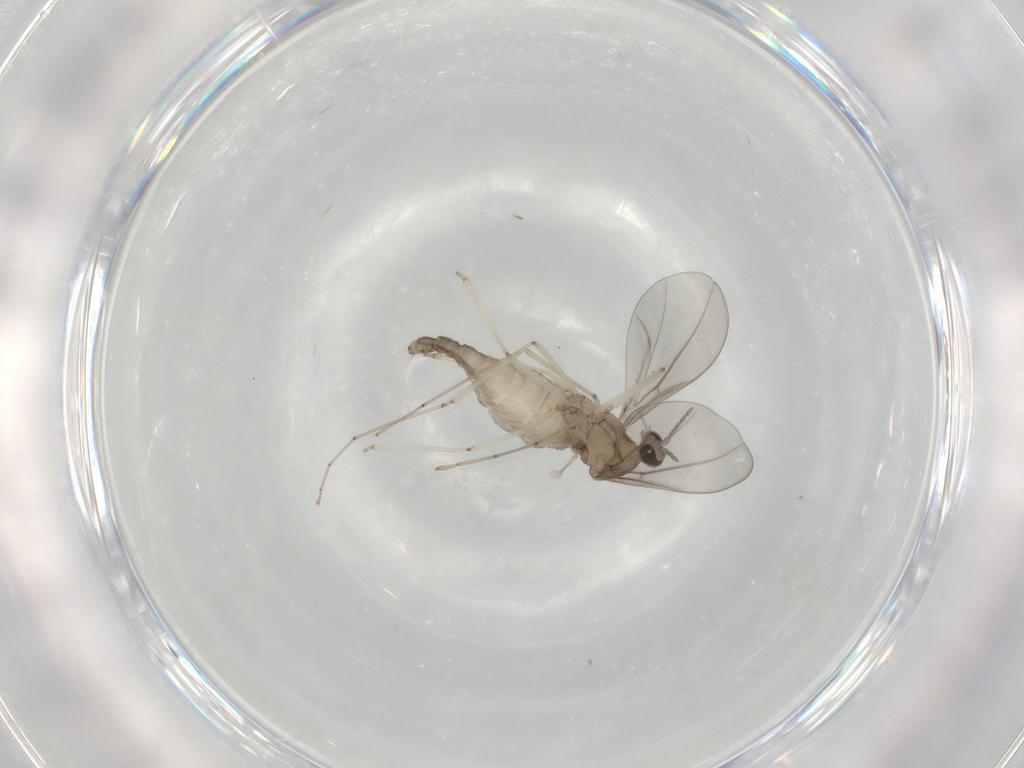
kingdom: Animalia
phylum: Arthropoda
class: Insecta
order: Diptera
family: Cecidomyiidae
